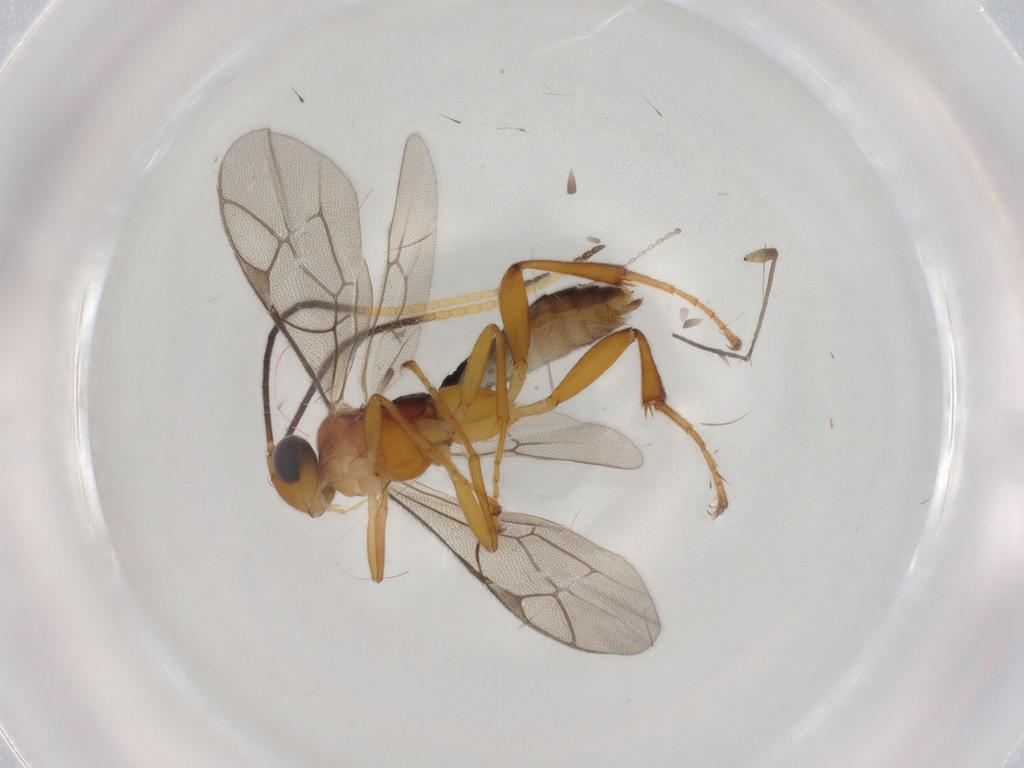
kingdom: Animalia
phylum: Arthropoda
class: Insecta
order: Hymenoptera
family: Ichneumonidae
